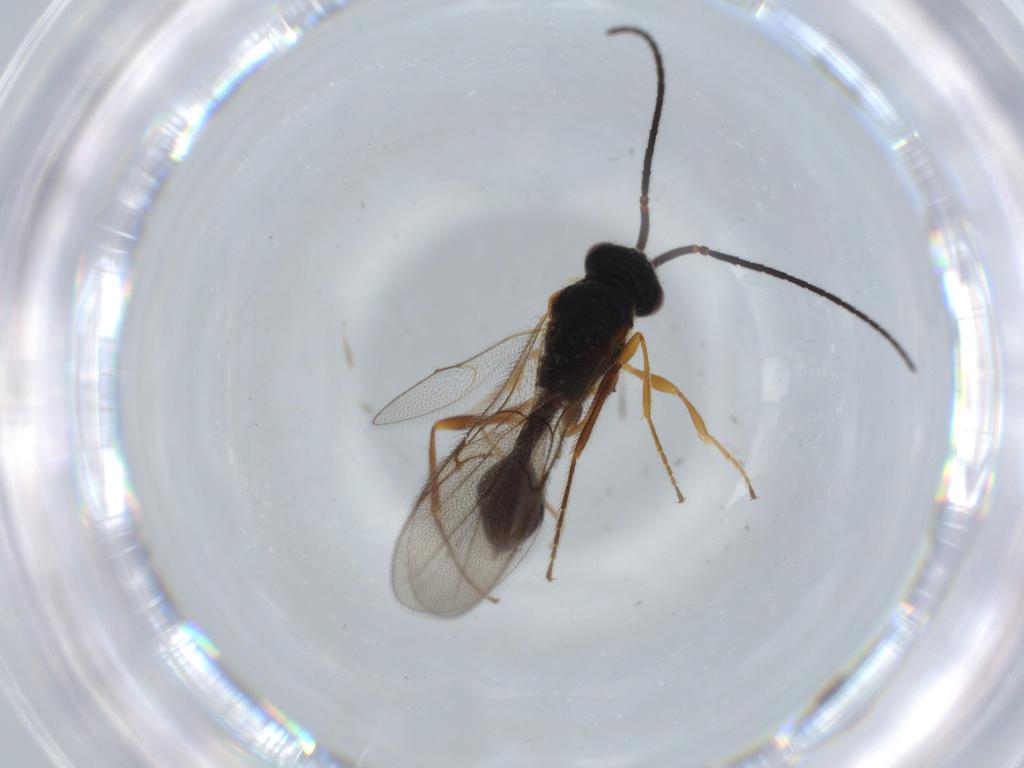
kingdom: Animalia
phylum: Arthropoda
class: Insecta
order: Hymenoptera
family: Diapriidae
